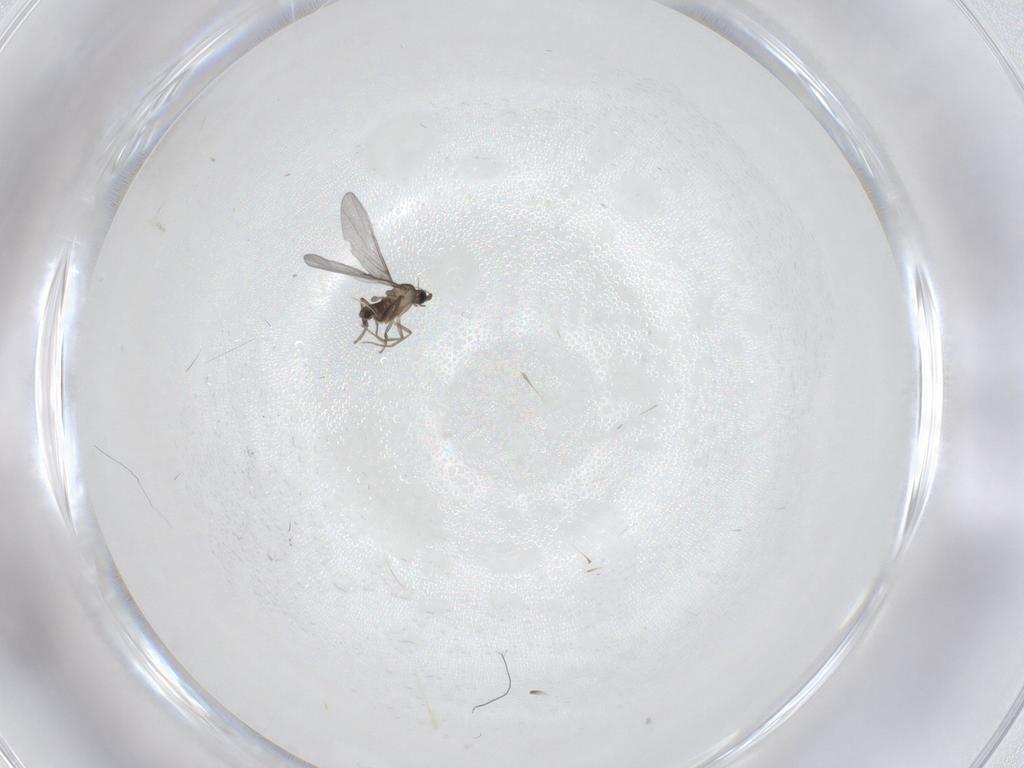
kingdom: Animalia
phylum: Arthropoda
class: Insecta
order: Diptera
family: Phoridae
